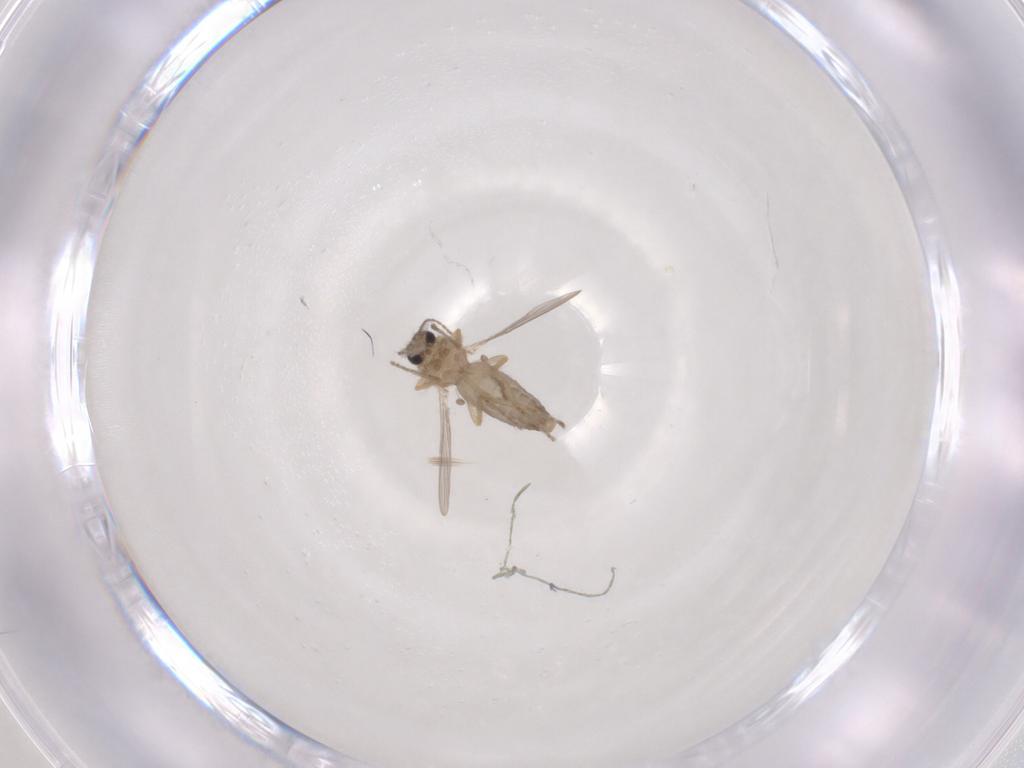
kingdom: Animalia
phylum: Arthropoda
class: Insecta
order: Diptera
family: Ceratopogonidae
